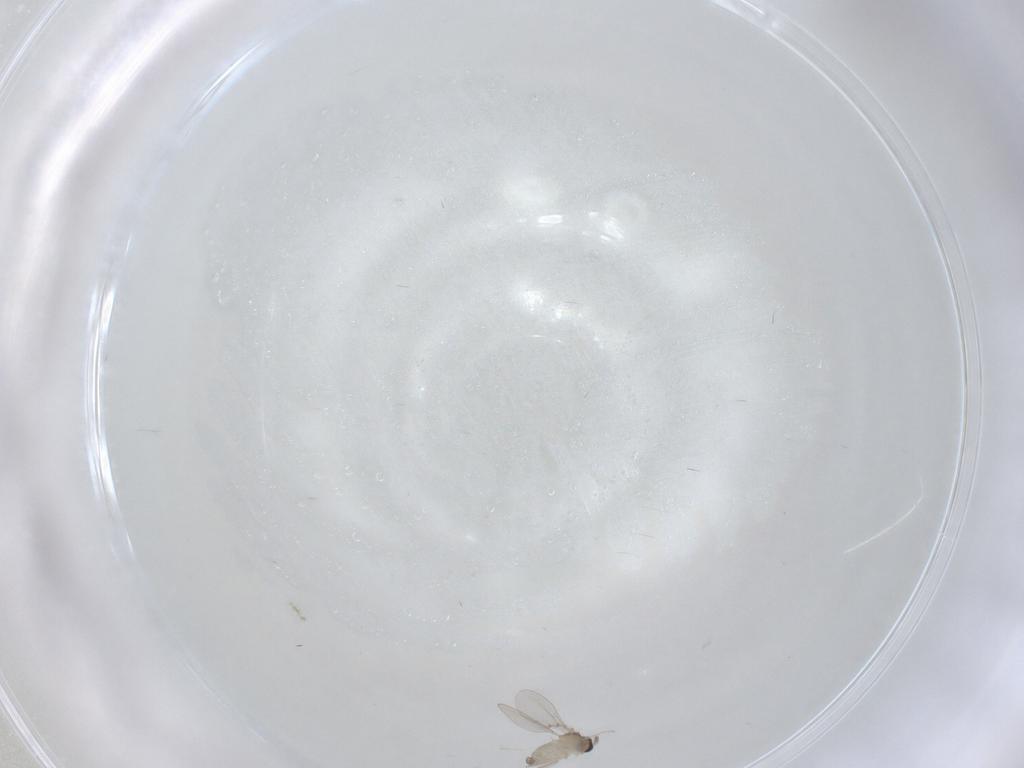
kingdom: Animalia
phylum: Arthropoda
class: Insecta
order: Diptera
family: Cecidomyiidae
